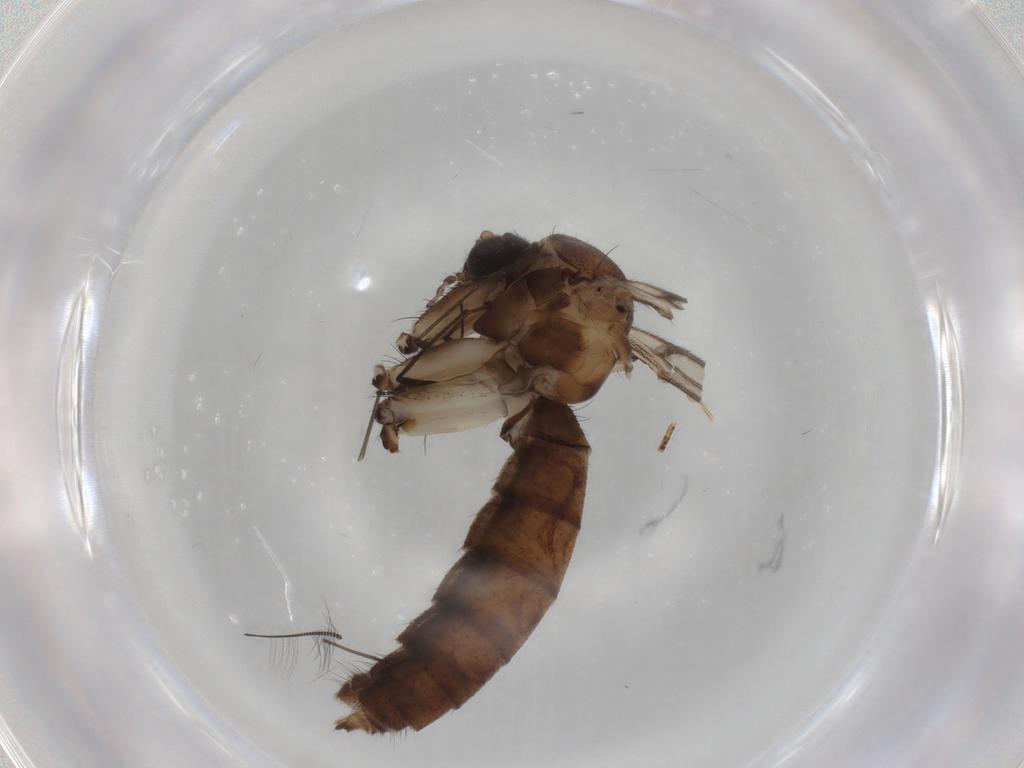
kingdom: Animalia
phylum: Arthropoda
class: Insecta
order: Diptera
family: Mycetophilidae
